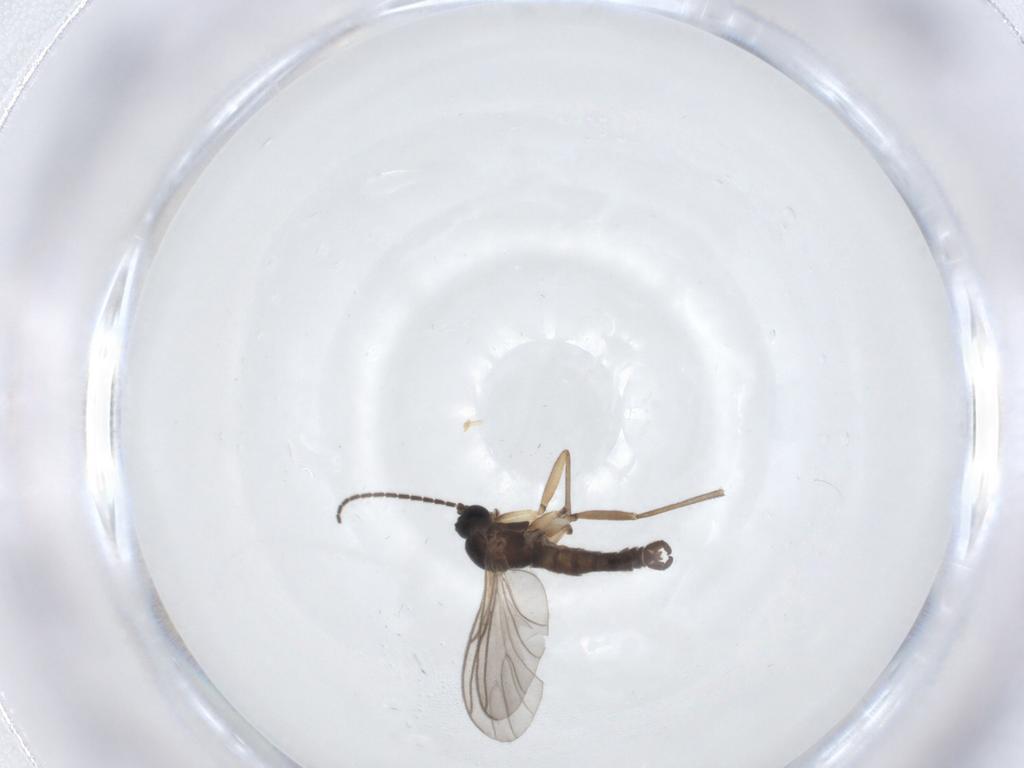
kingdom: Animalia
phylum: Arthropoda
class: Insecta
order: Diptera
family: Sciaridae
